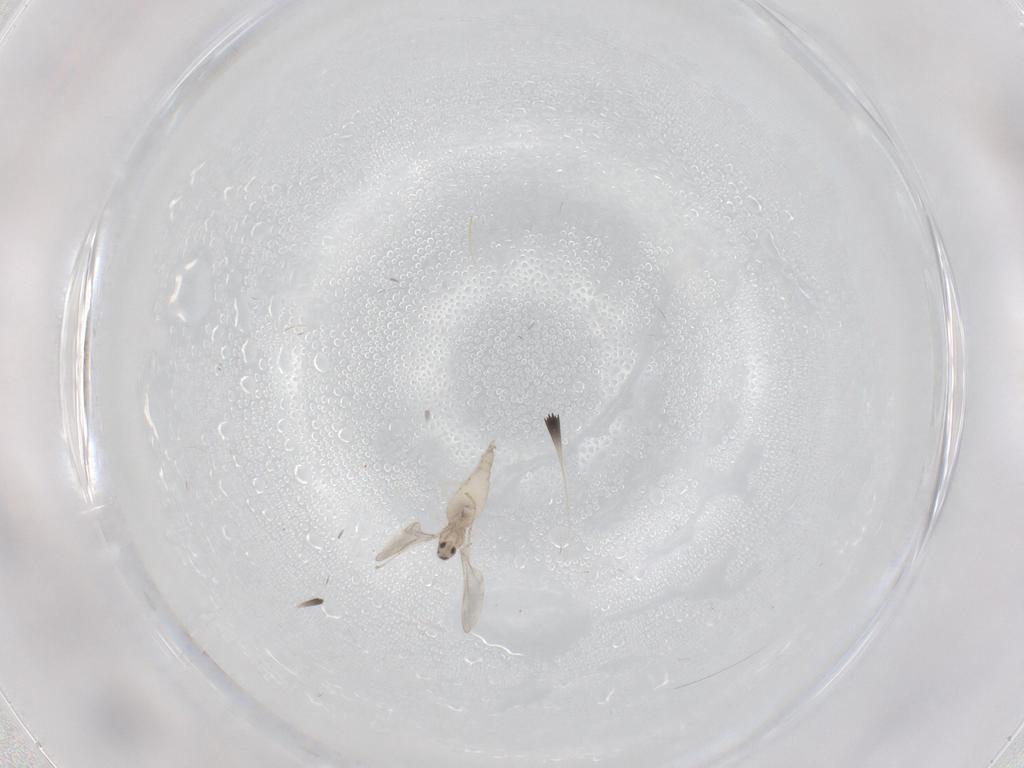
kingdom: Animalia
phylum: Arthropoda
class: Insecta
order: Diptera
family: Cecidomyiidae
